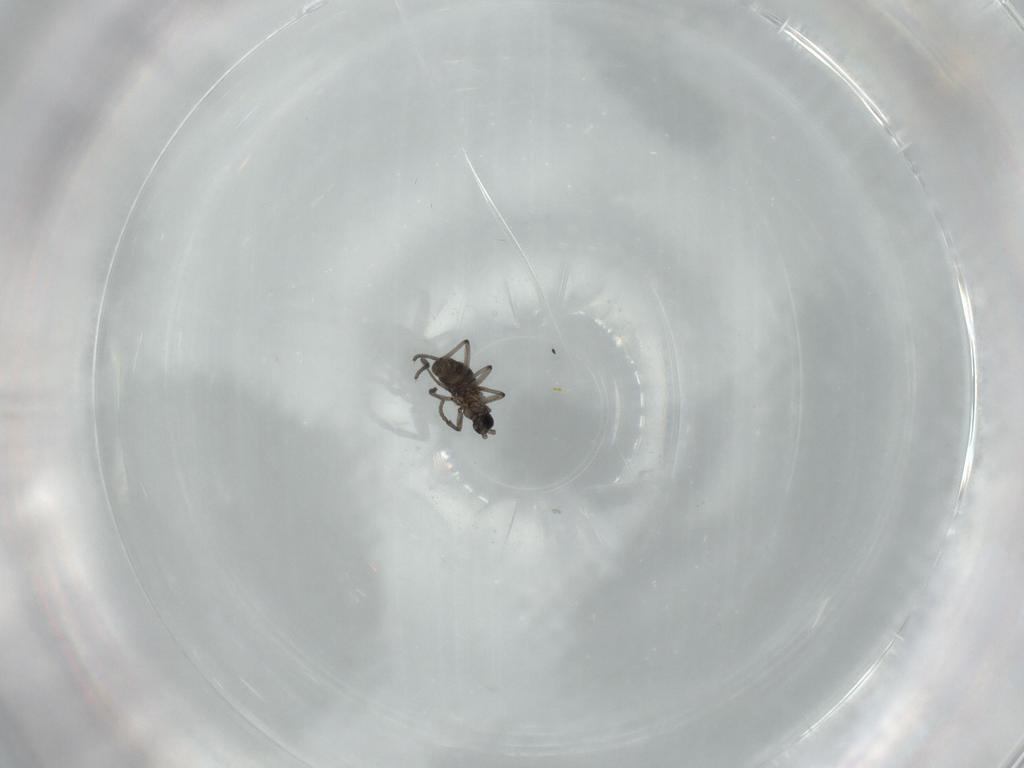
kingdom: Animalia
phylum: Arthropoda
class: Insecta
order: Diptera
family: Sciaridae
